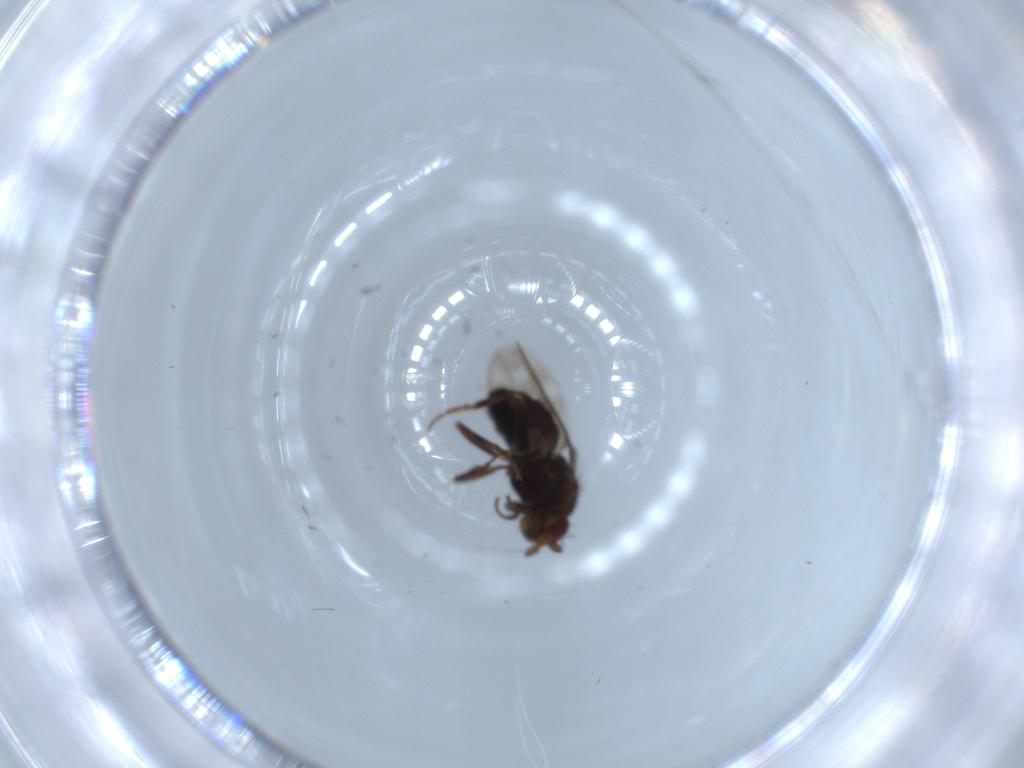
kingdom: Animalia
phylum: Arthropoda
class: Insecta
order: Diptera
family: Sphaeroceridae
